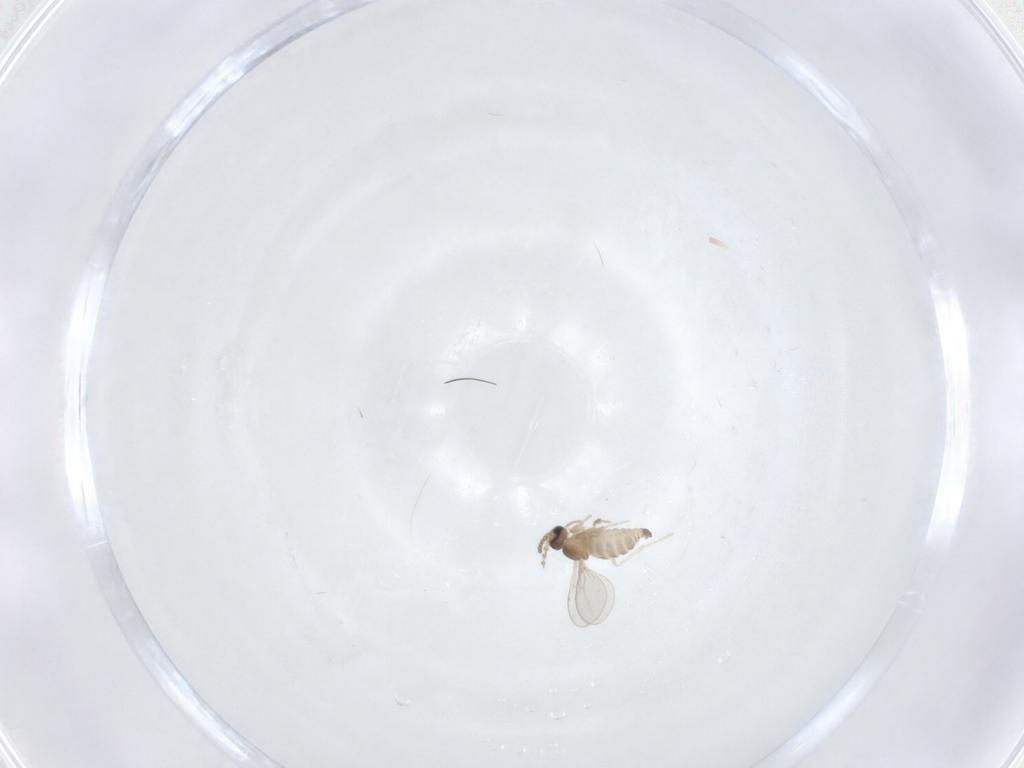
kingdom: Animalia
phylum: Arthropoda
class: Insecta
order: Diptera
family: Cecidomyiidae
